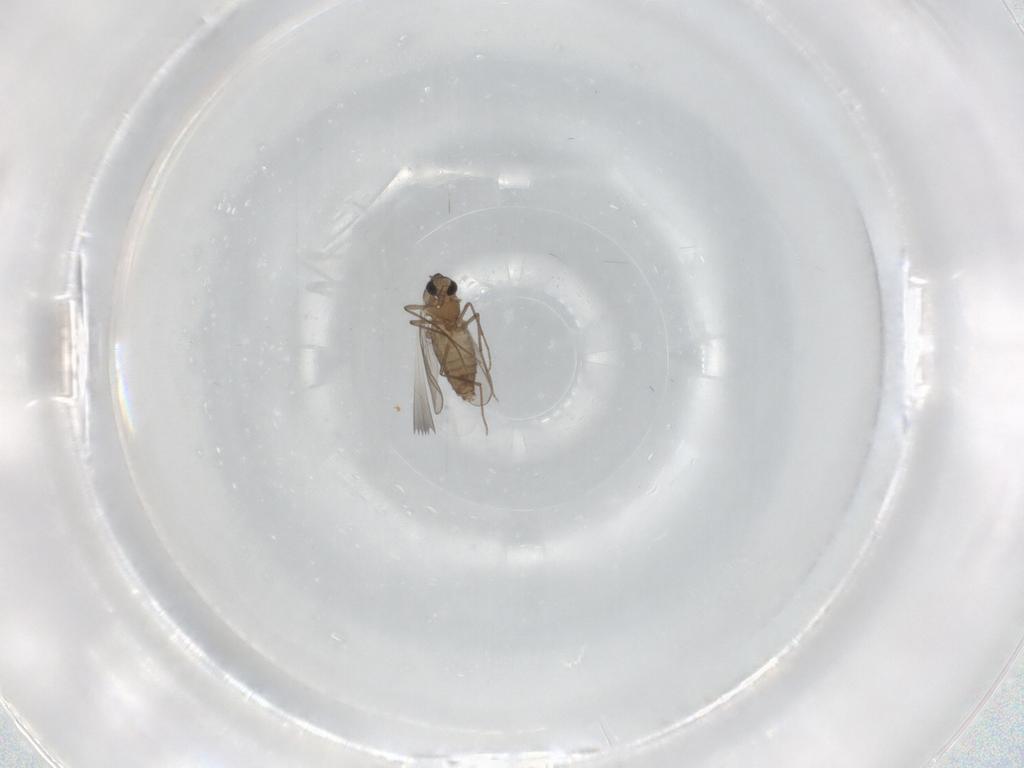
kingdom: Animalia
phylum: Arthropoda
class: Insecta
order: Diptera
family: Chironomidae
